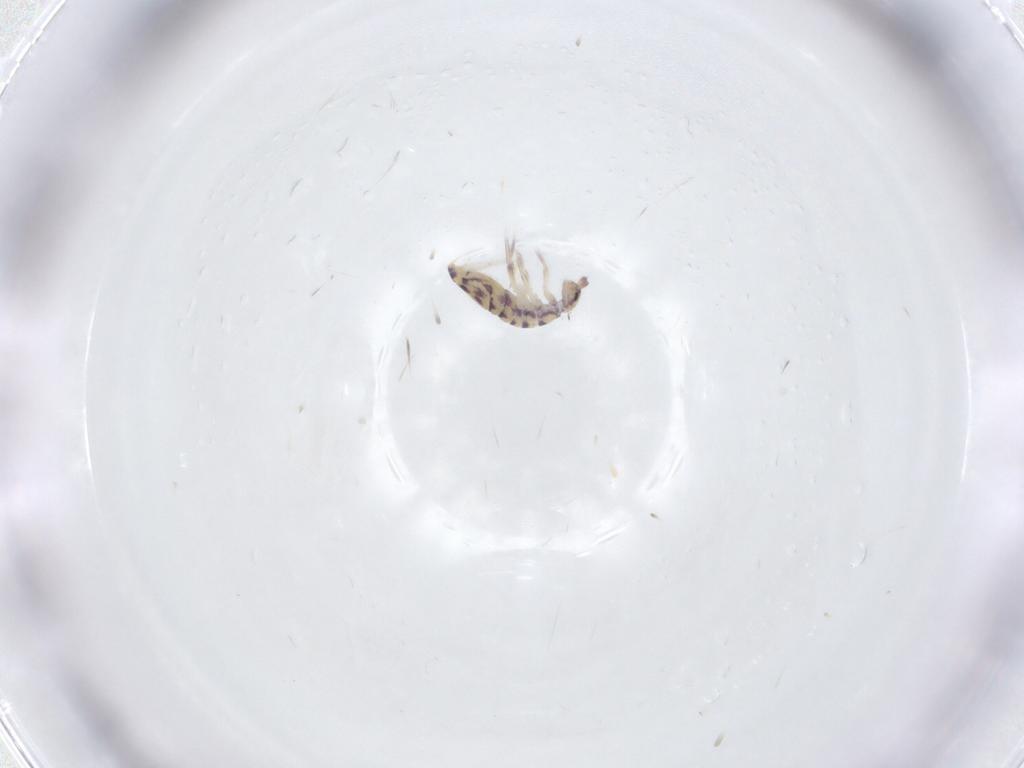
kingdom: Animalia
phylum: Arthropoda
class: Collembola
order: Entomobryomorpha
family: Entomobryidae
